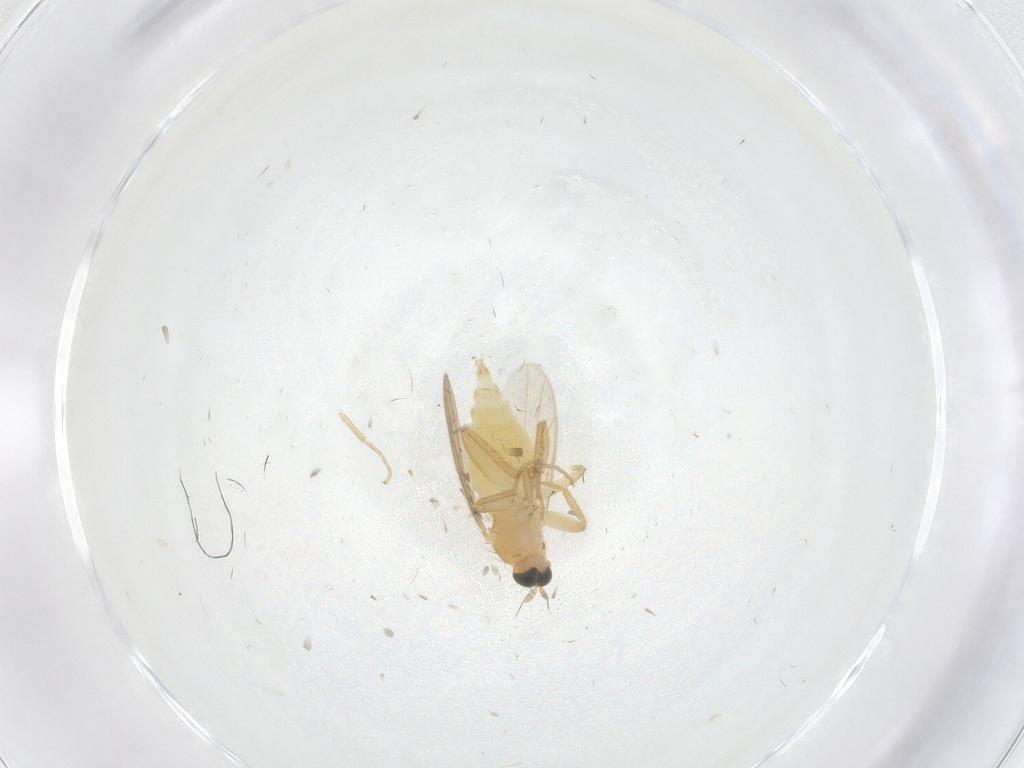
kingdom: Animalia
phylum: Arthropoda
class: Insecta
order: Diptera
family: Hybotidae
